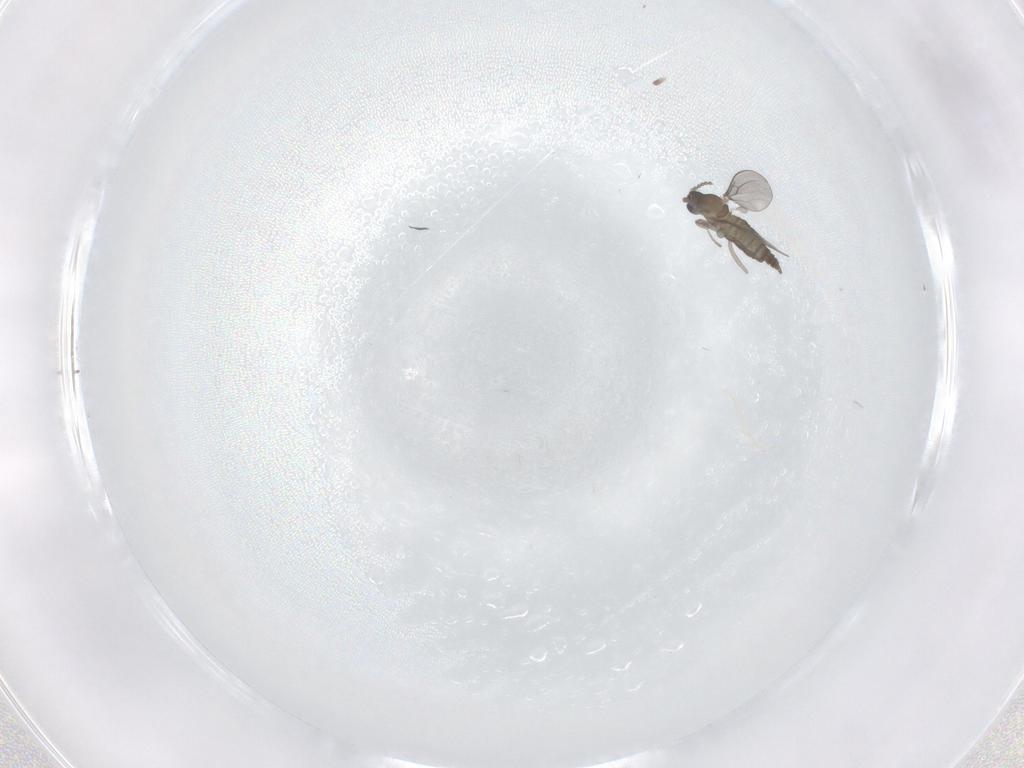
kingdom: Animalia
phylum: Arthropoda
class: Insecta
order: Diptera
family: Cecidomyiidae
